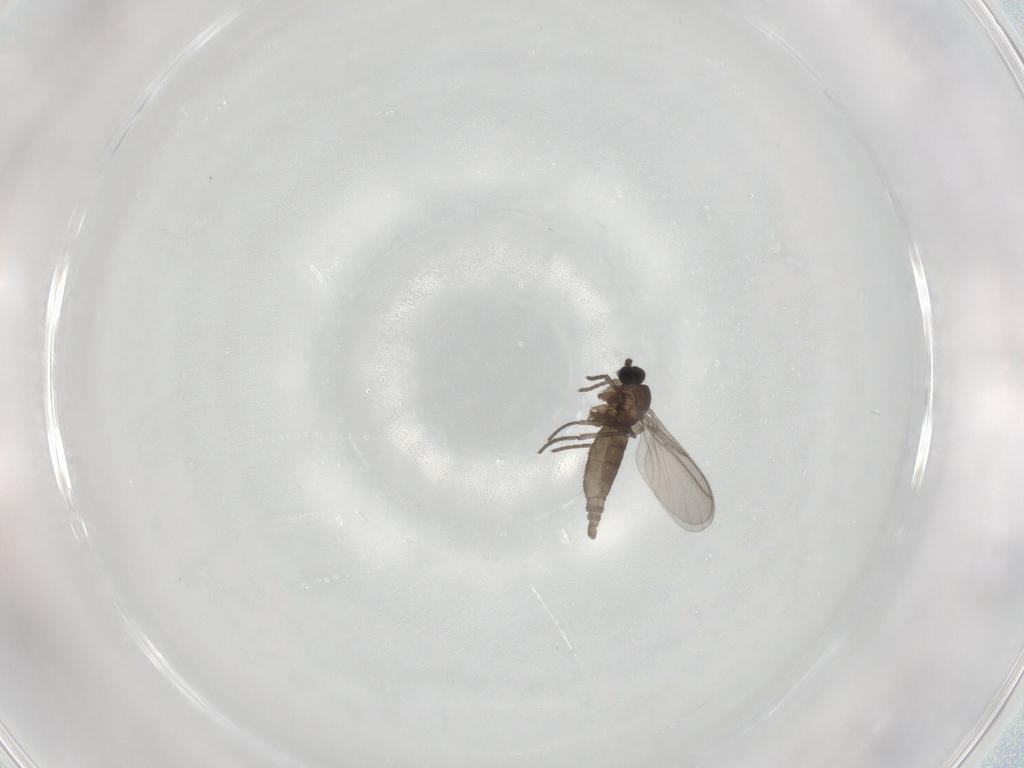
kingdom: Animalia
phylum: Arthropoda
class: Insecta
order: Diptera
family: Sciaridae
